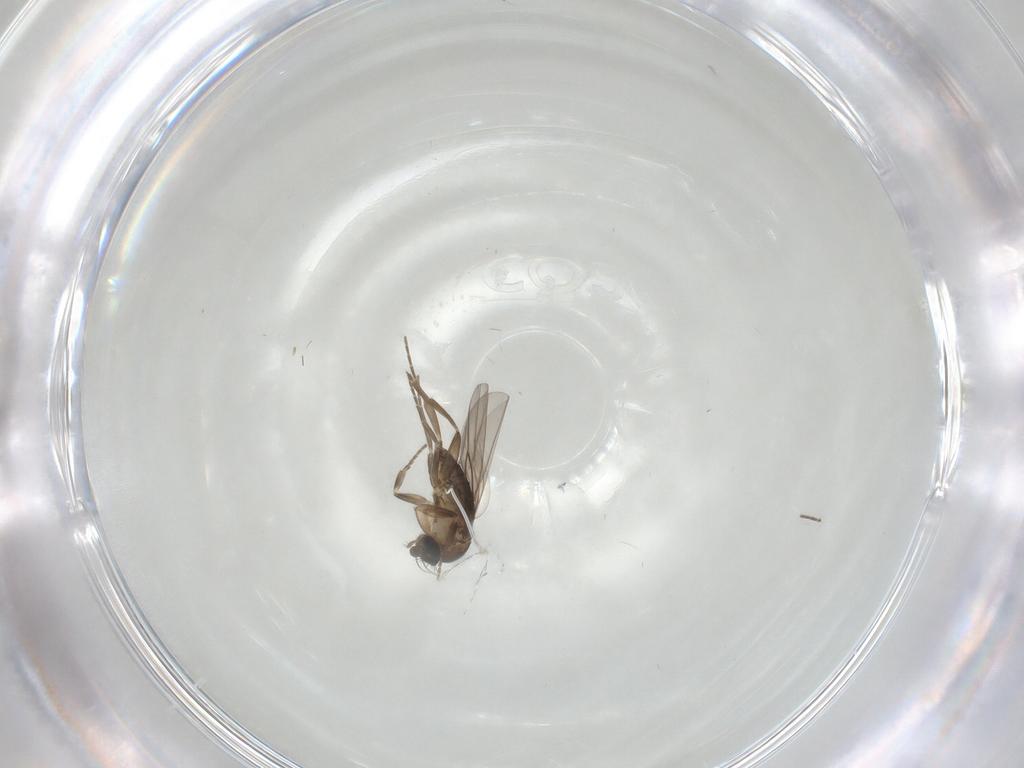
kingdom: Animalia
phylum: Arthropoda
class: Insecta
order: Diptera
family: Phoridae
